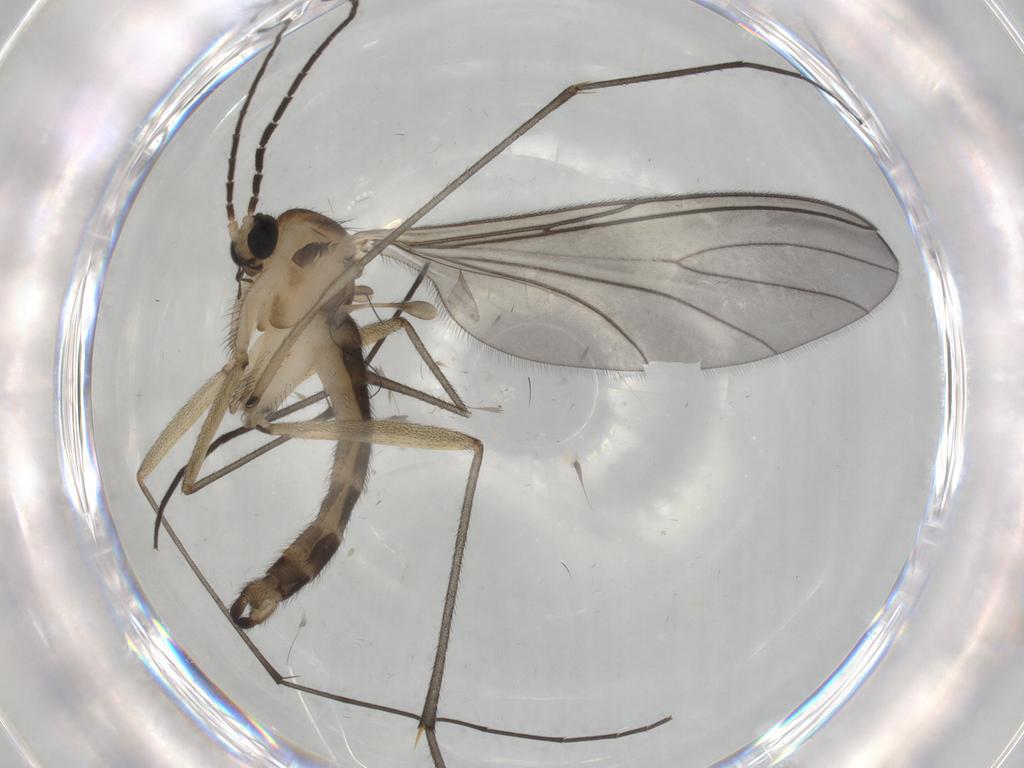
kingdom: Animalia
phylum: Arthropoda
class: Insecta
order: Diptera
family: Sciaridae
